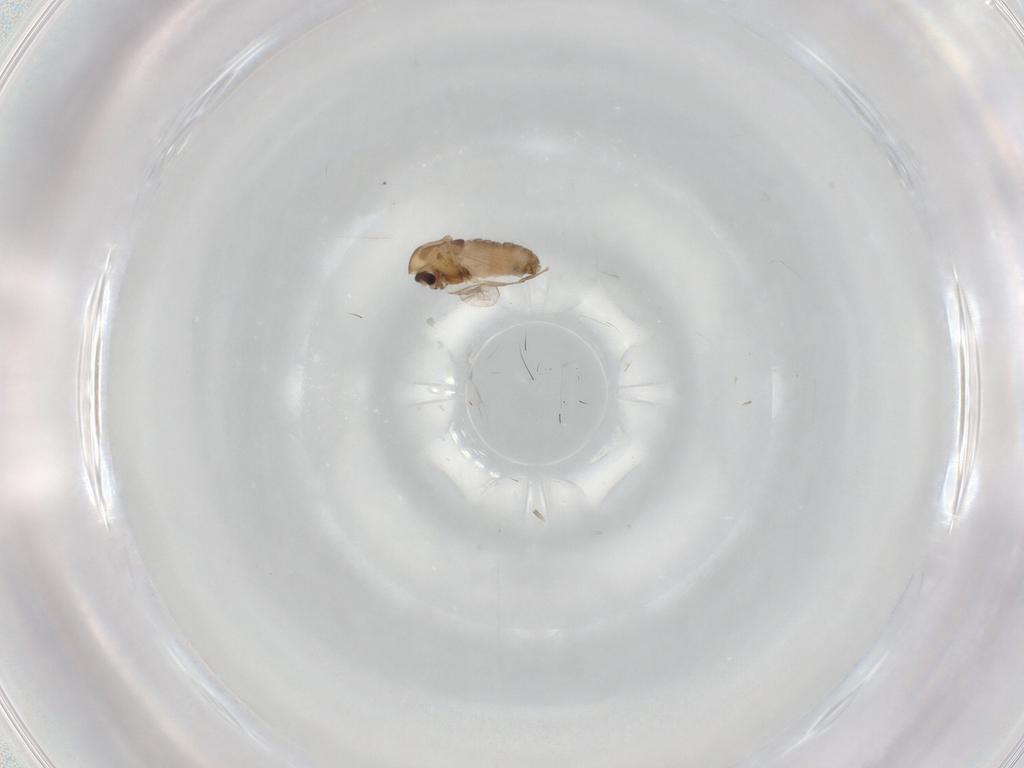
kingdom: Animalia
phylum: Arthropoda
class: Insecta
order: Diptera
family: Chironomidae
